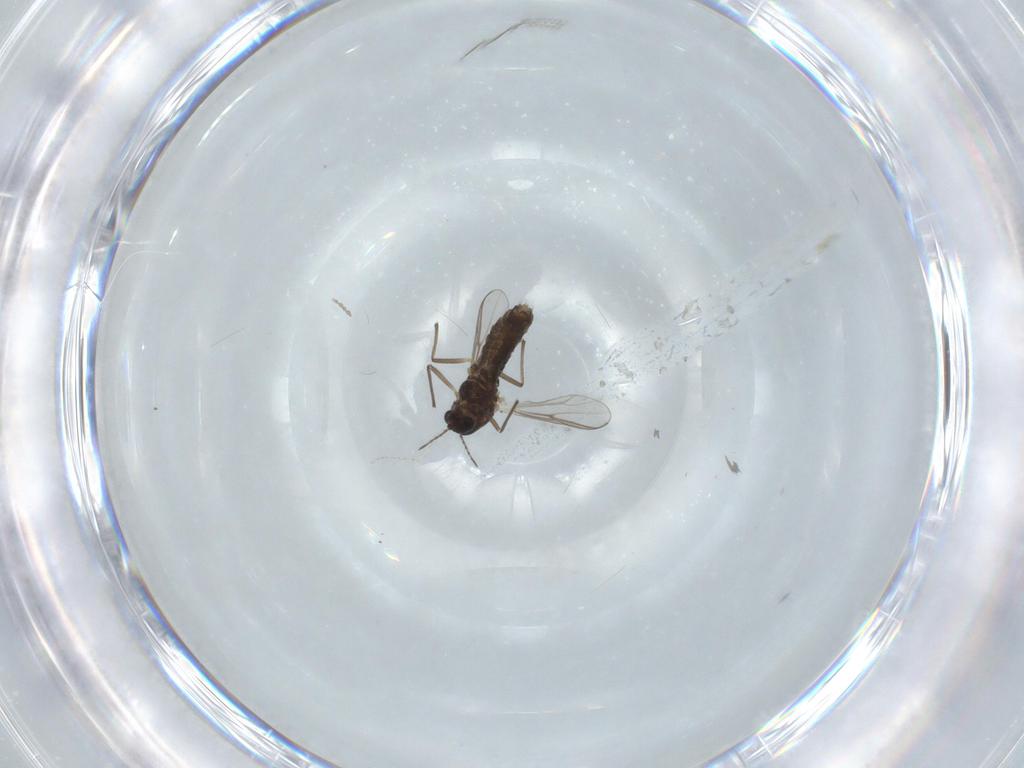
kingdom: Animalia
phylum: Arthropoda
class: Insecta
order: Diptera
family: Chironomidae
